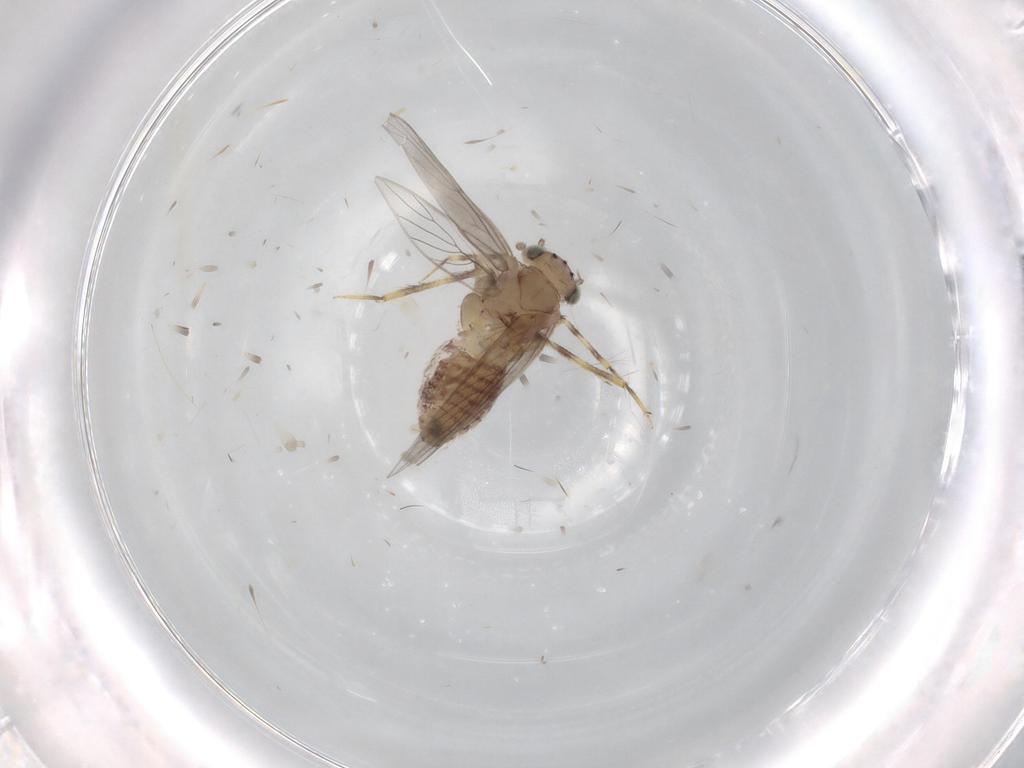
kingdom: Animalia
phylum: Arthropoda
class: Insecta
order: Psocodea
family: Lepidopsocidae
